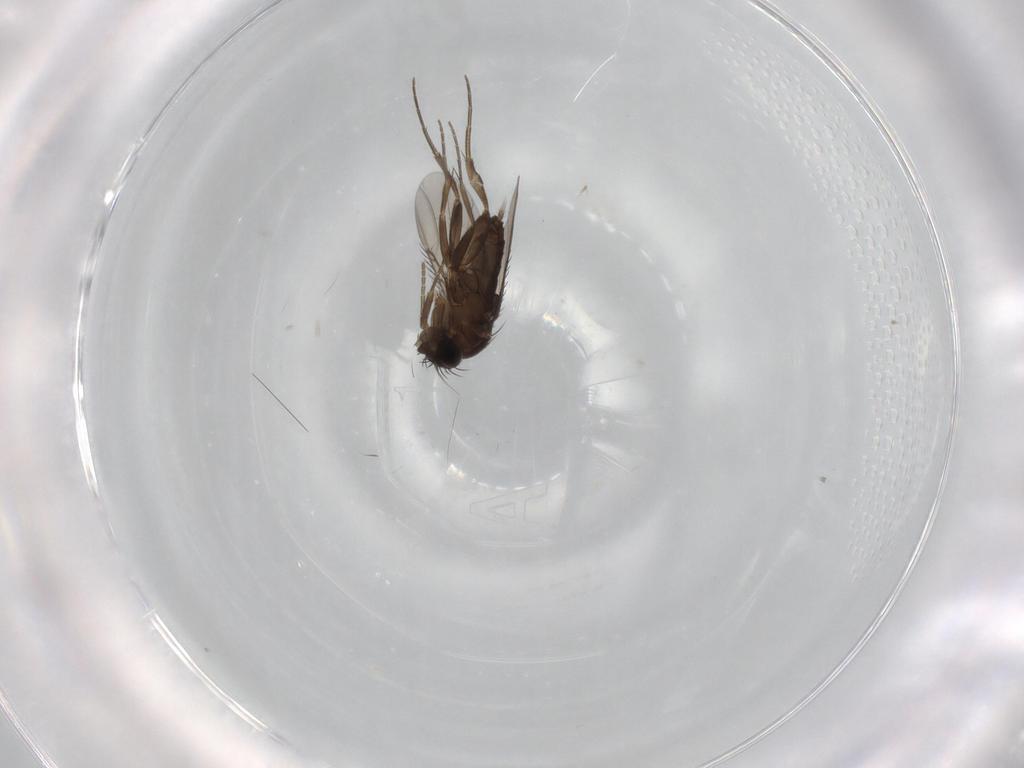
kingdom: Animalia
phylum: Arthropoda
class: Insecta
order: Diptera
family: Phoridae
